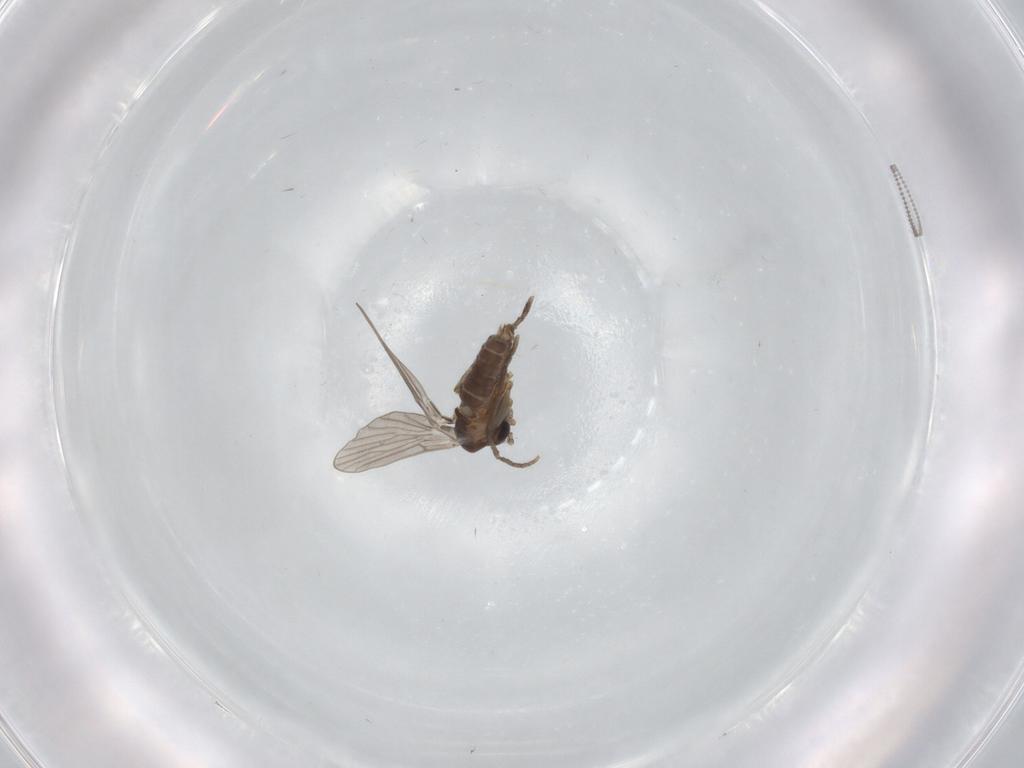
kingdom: Animalia
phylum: Arthropoda
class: Insecta
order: Diptera
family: Cecidomyiidae
